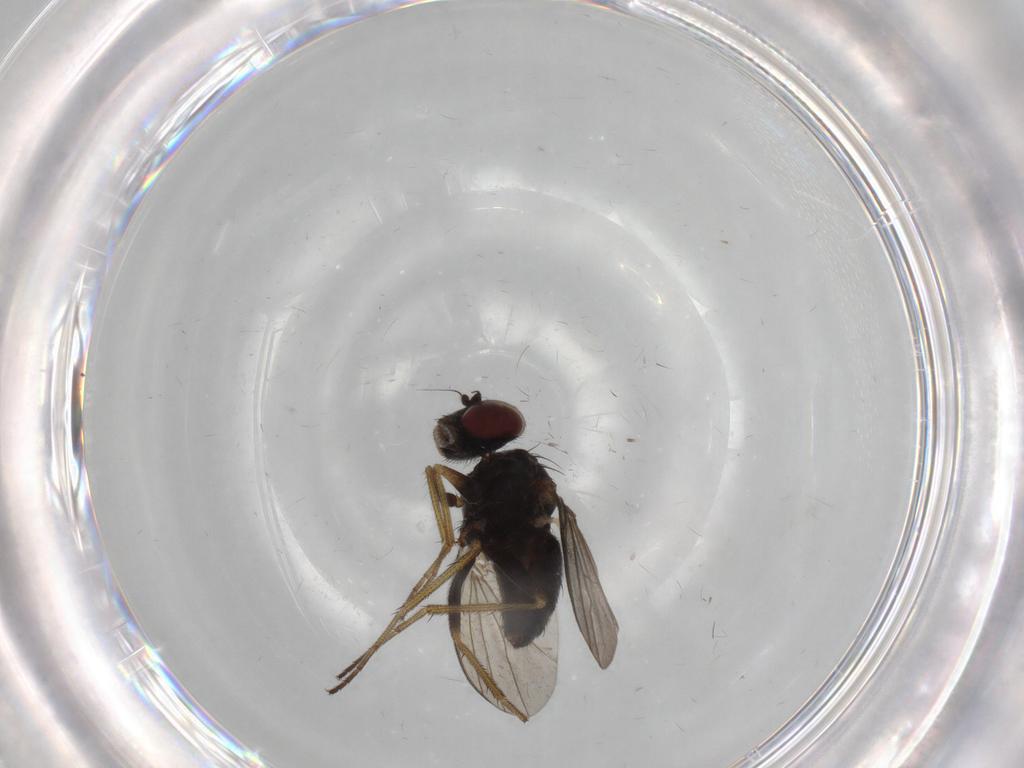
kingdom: Animalia
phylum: Arthropoda
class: Insecta
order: Diptera
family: Dolichopodidae
